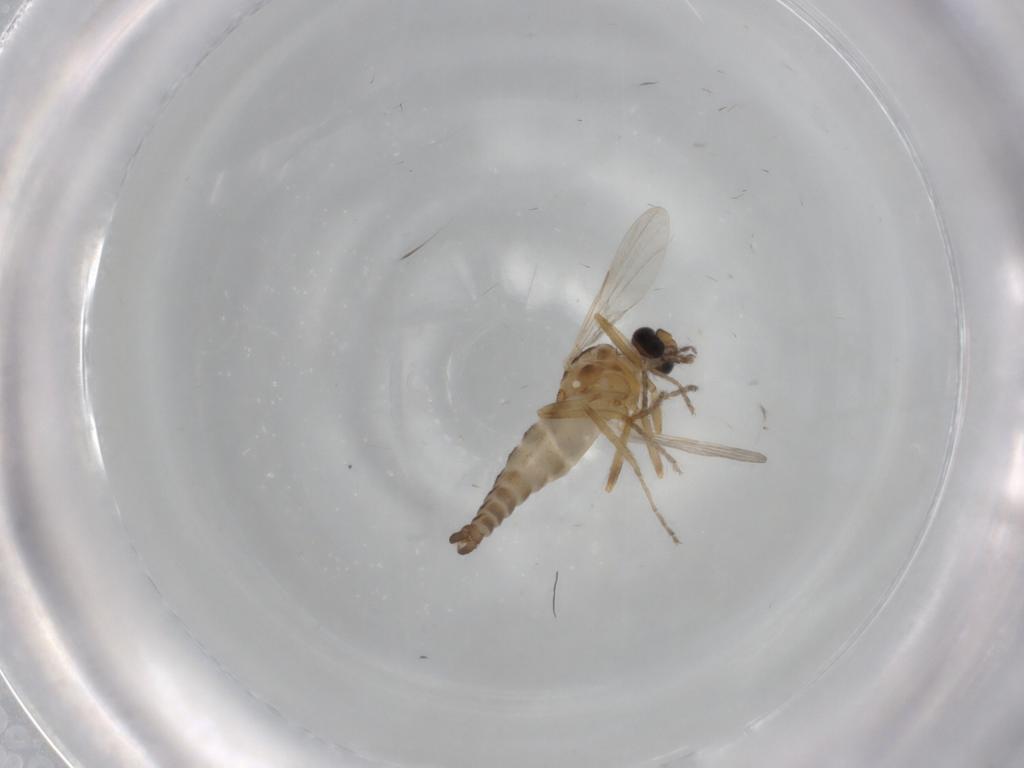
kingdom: Animalia
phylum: Arthropoda
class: Insecta
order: Diptera
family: Ceratopogonidae
